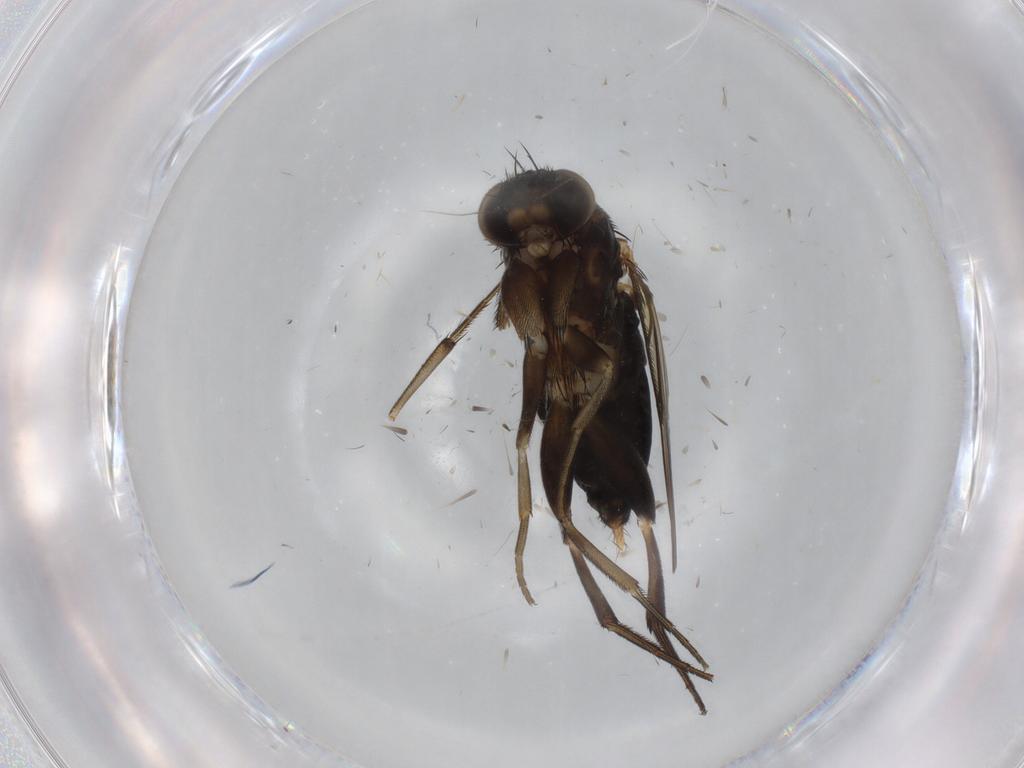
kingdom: Animalia
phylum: Arthropoda
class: Insecta
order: Diptera
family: Phoridae
